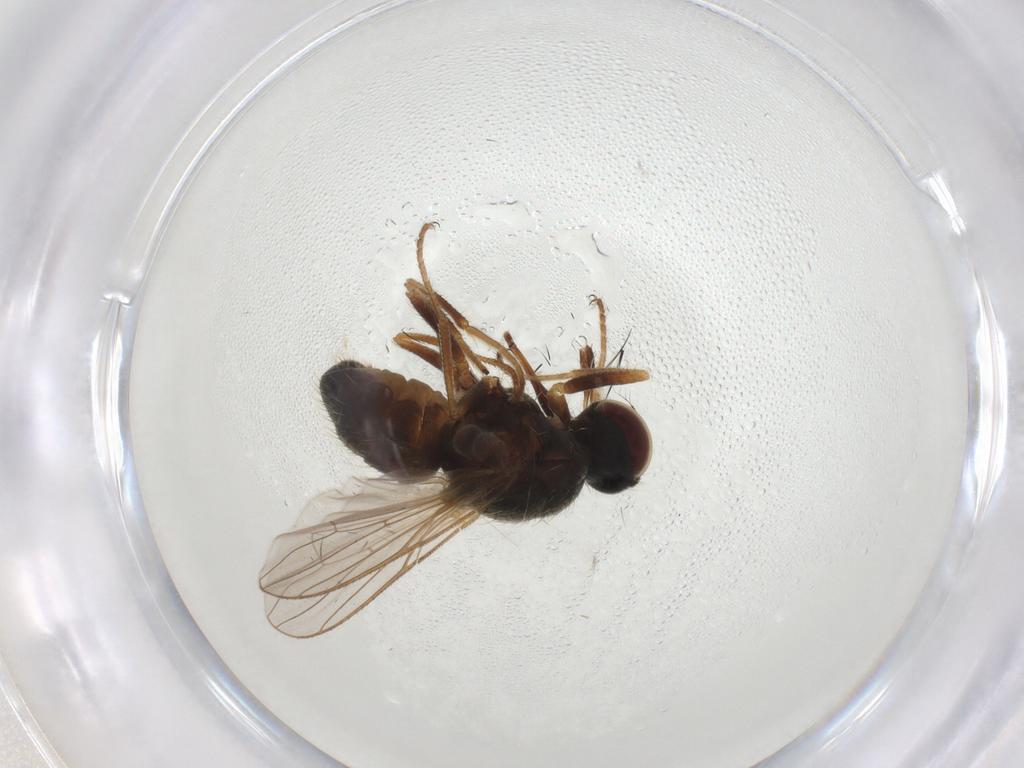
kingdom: Animalia
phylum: Arthropoda
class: Insecta
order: Diptera
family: Muscidae
